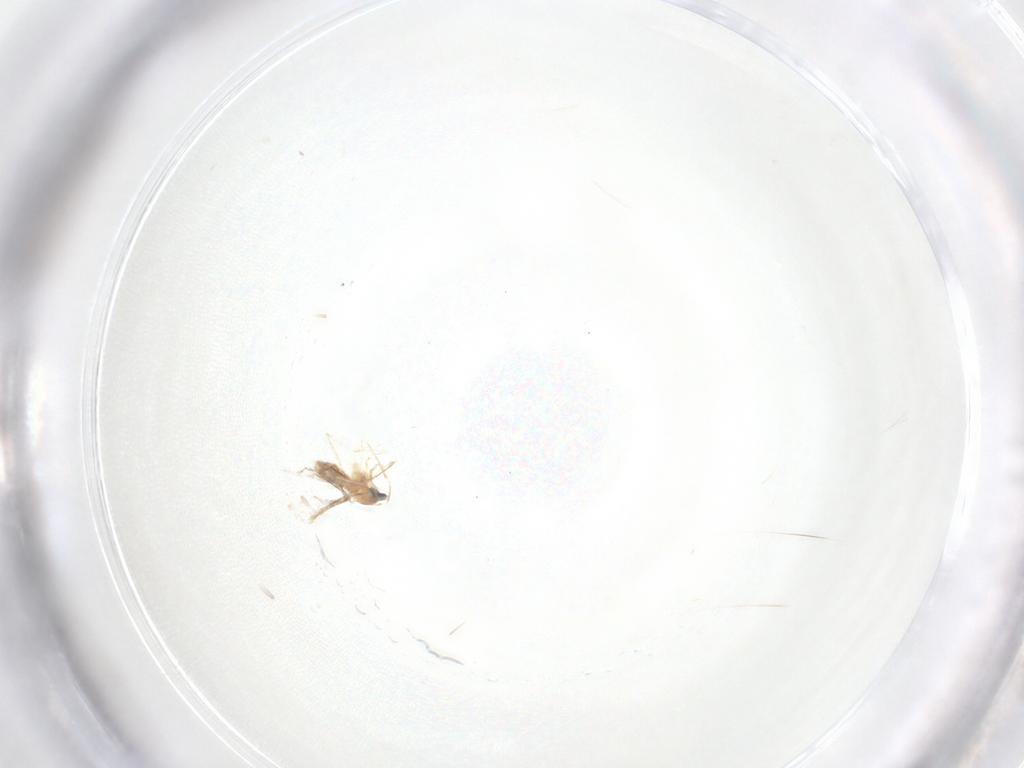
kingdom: Animalia
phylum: Arthropoda
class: Insecta
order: Diptera
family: Cecidomyiidae
